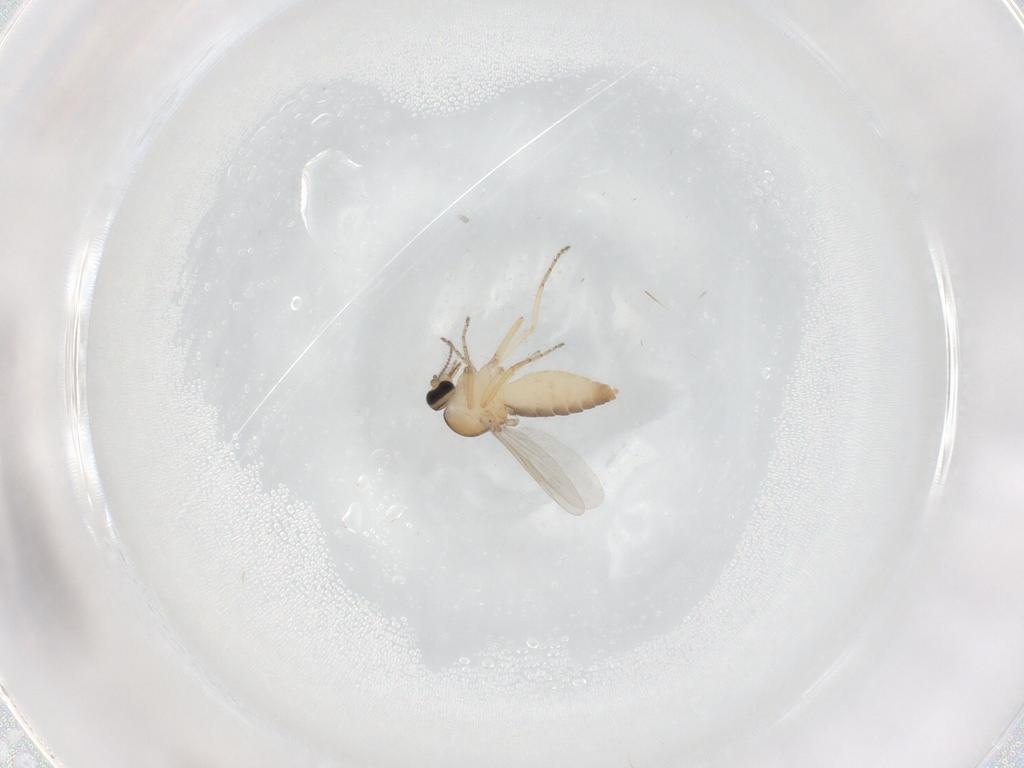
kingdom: Animalia
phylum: Arthropoda
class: Insecta
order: Diptera
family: Ceratopogonidae
